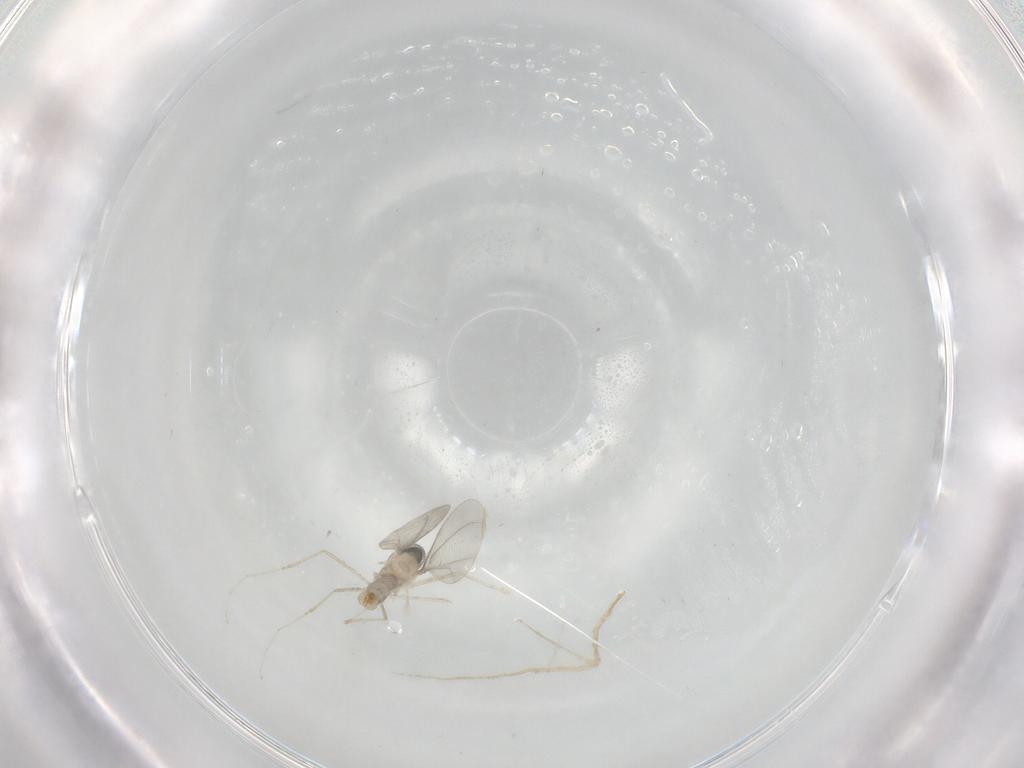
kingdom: Animalia
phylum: Arthropoda
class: Insecta
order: Diptera
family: Cecidomyiidae
